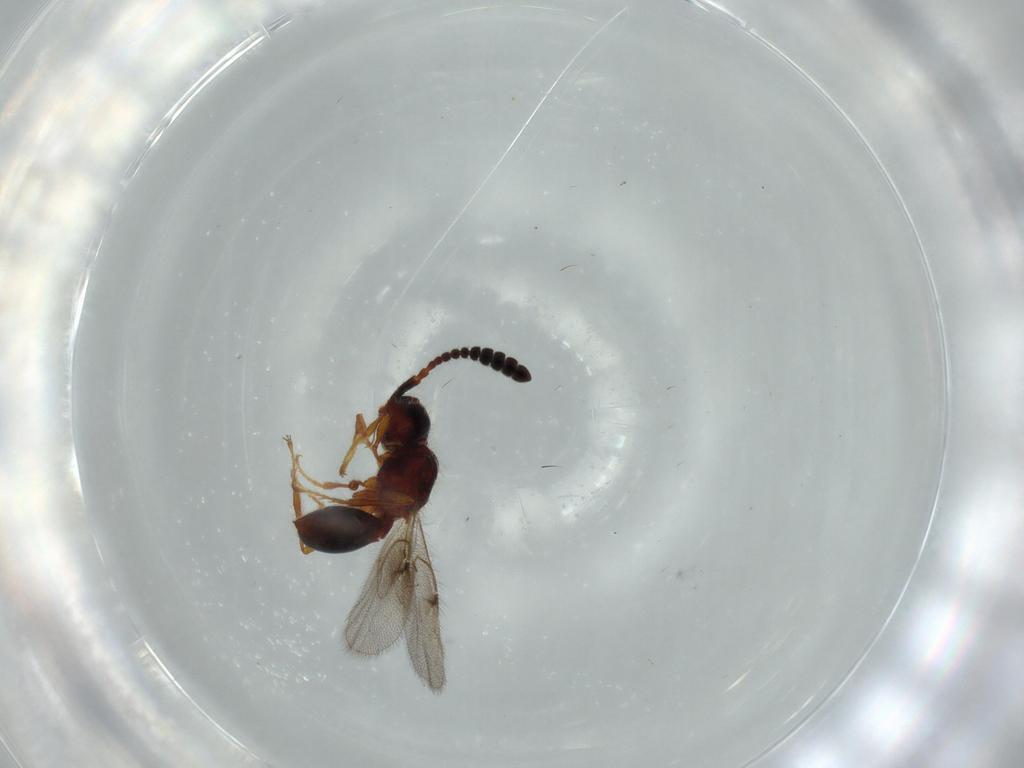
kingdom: Animalia
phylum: Arthropoda
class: Insecta
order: Hymenoptera
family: Diapriidae
